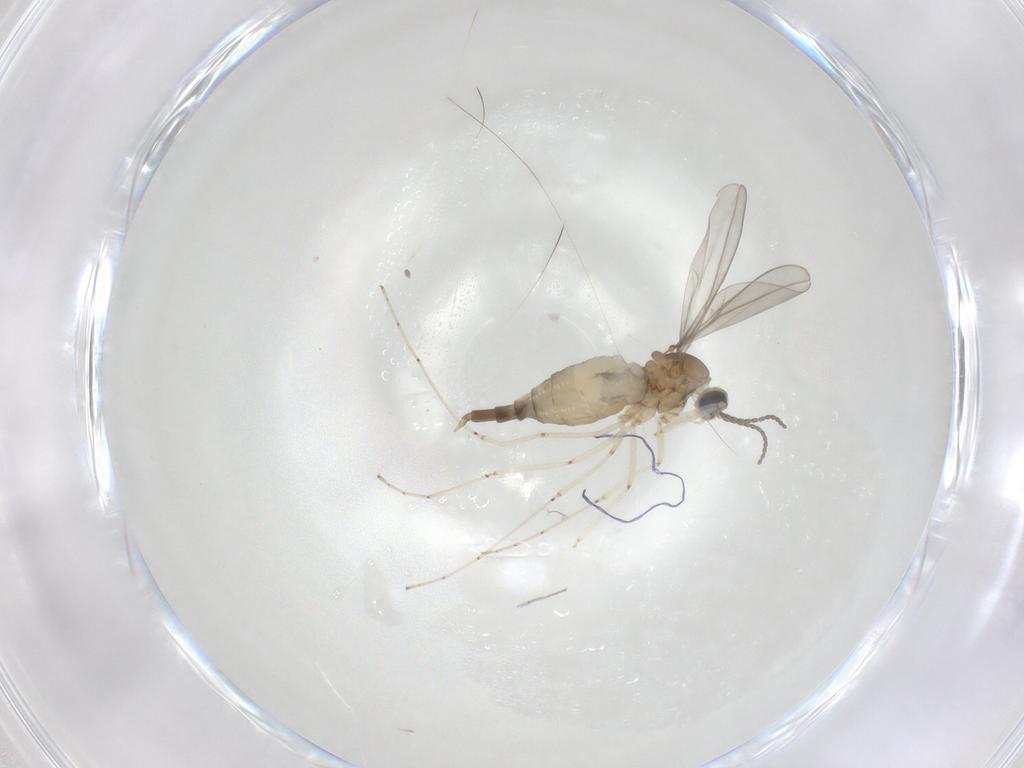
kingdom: Animalia
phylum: Arthropoda
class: Insecta
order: Diptera
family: Cecidomyiidae
